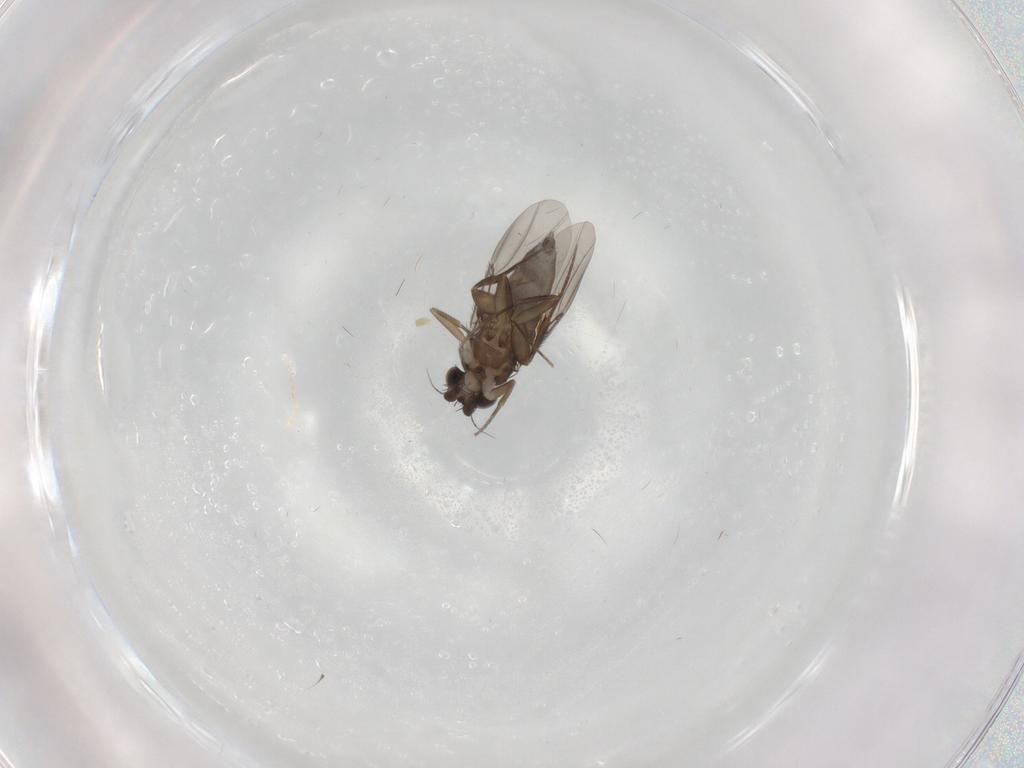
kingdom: Animalia
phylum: Arthropoda
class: Insecta
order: Diptera
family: Phoridae
